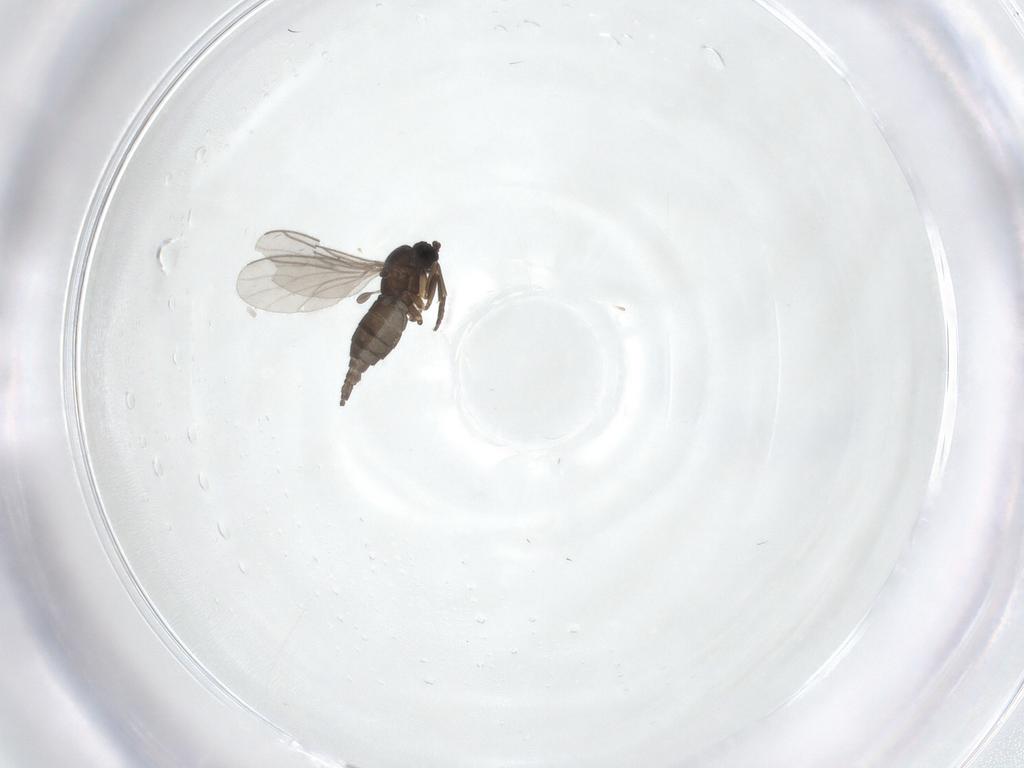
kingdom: Animalia
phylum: Arthropoda
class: Insecta
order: Diptera
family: Sciaridae
